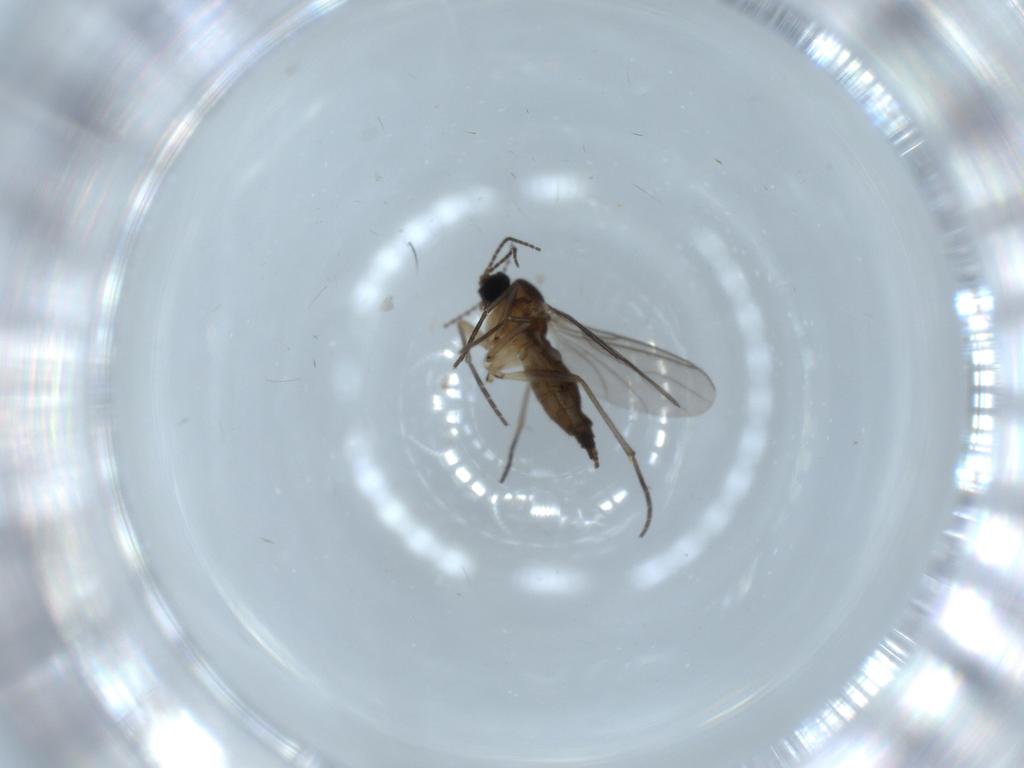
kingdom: Animalia
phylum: Arthropoda
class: Insecta
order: Diptera
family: Sciaridae
